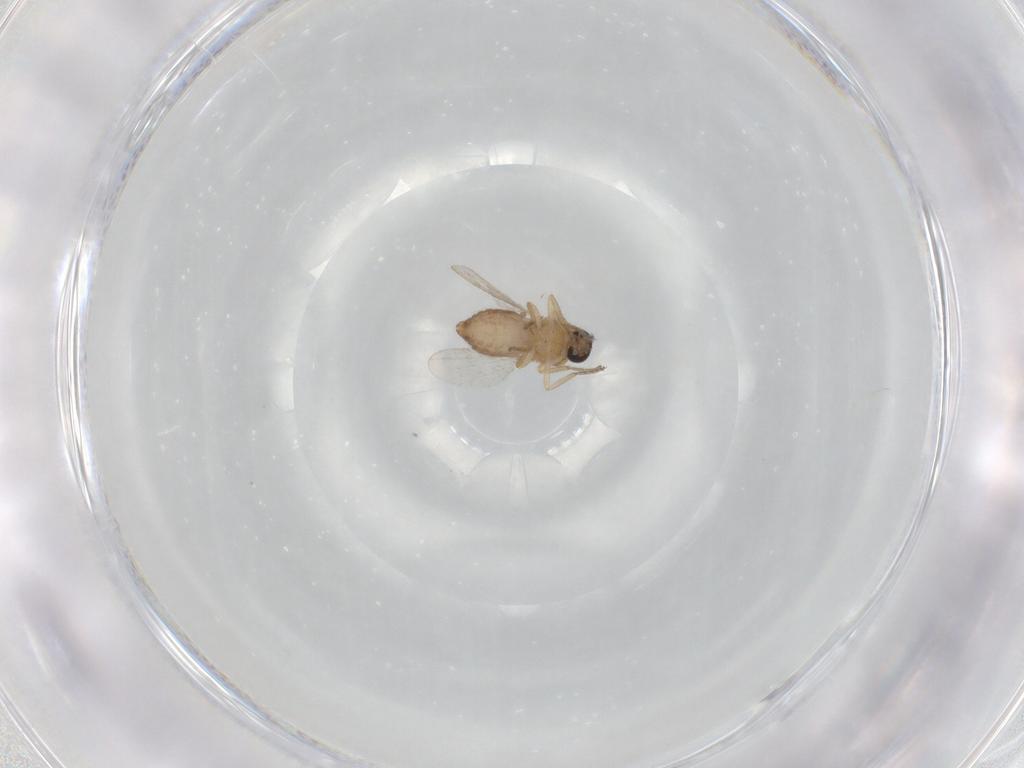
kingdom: Animalia
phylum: Arthropoda
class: Insecta
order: Diptera
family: Ceratopogonidae
